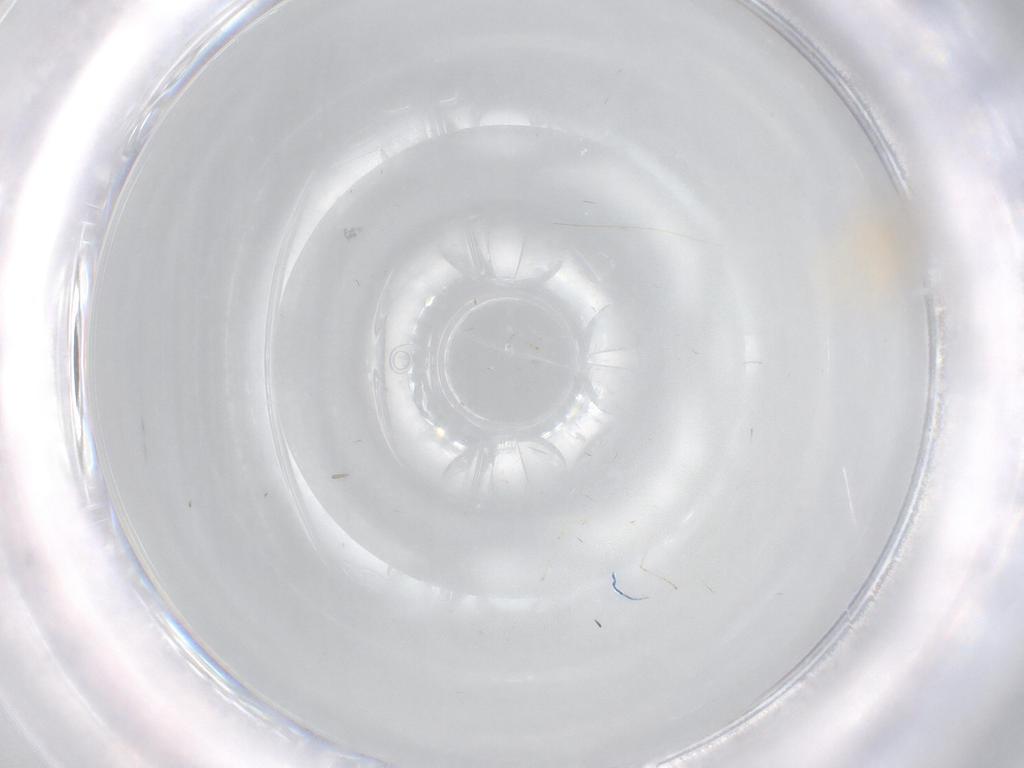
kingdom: Animalia
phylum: Arthropoda
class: Insecta
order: Diptera
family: Cecidomyiidae
